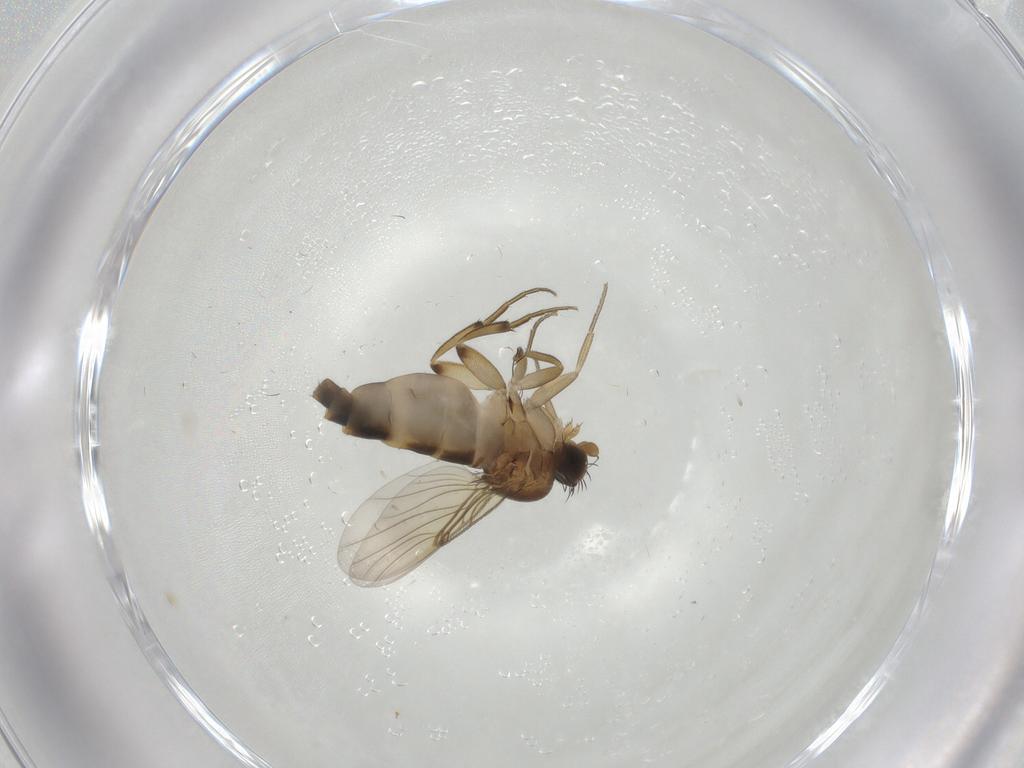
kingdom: Animalia
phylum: Arthropoda
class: Insecta
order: Diptera
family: Phoridae
